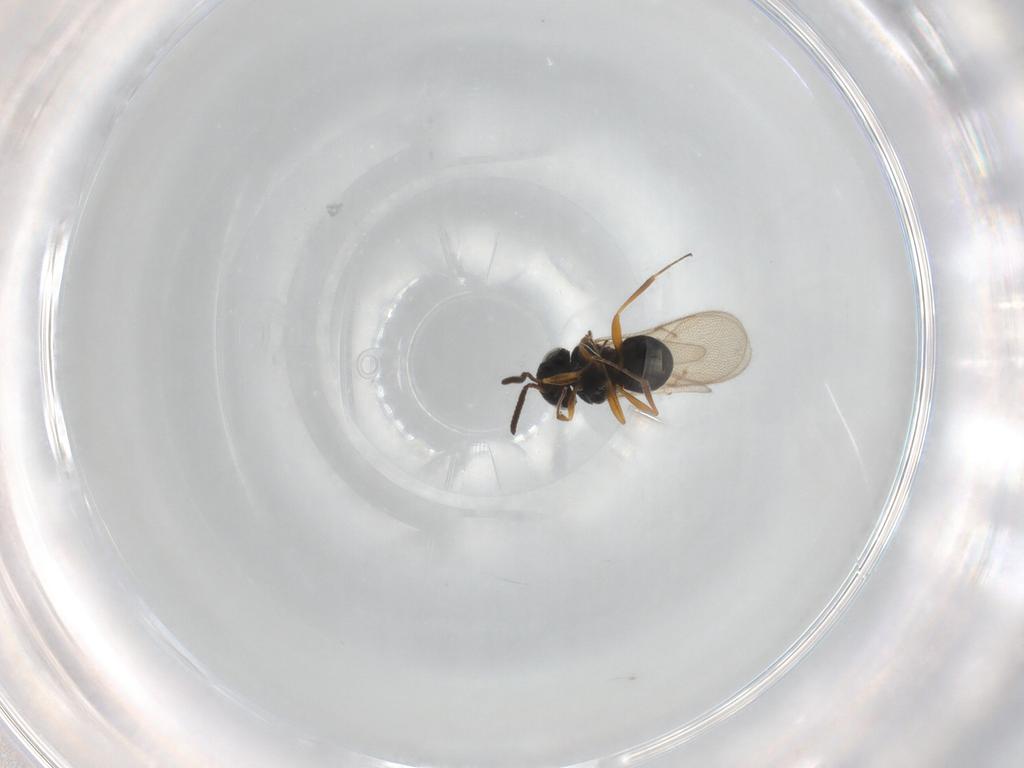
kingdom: Animalia
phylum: Arthropoda
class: Insecta
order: Hymenoptera
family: Scelionidae
